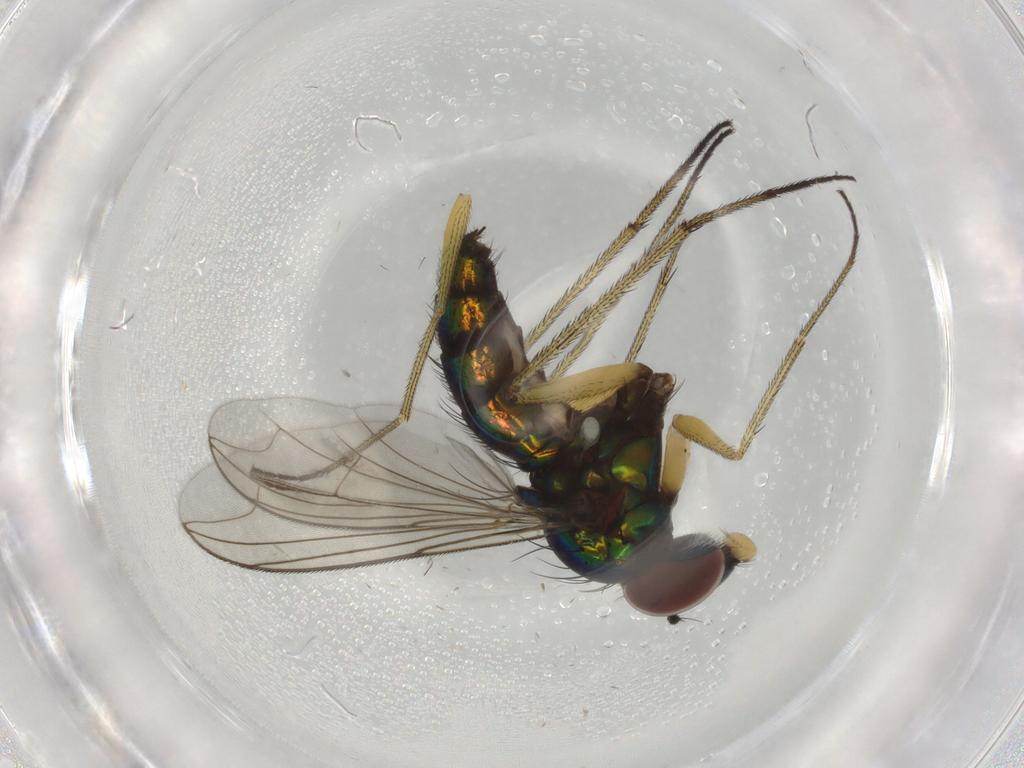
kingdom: Animalia
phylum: Arthropoda
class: Insecta
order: Diptera
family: Dolichopodidae
